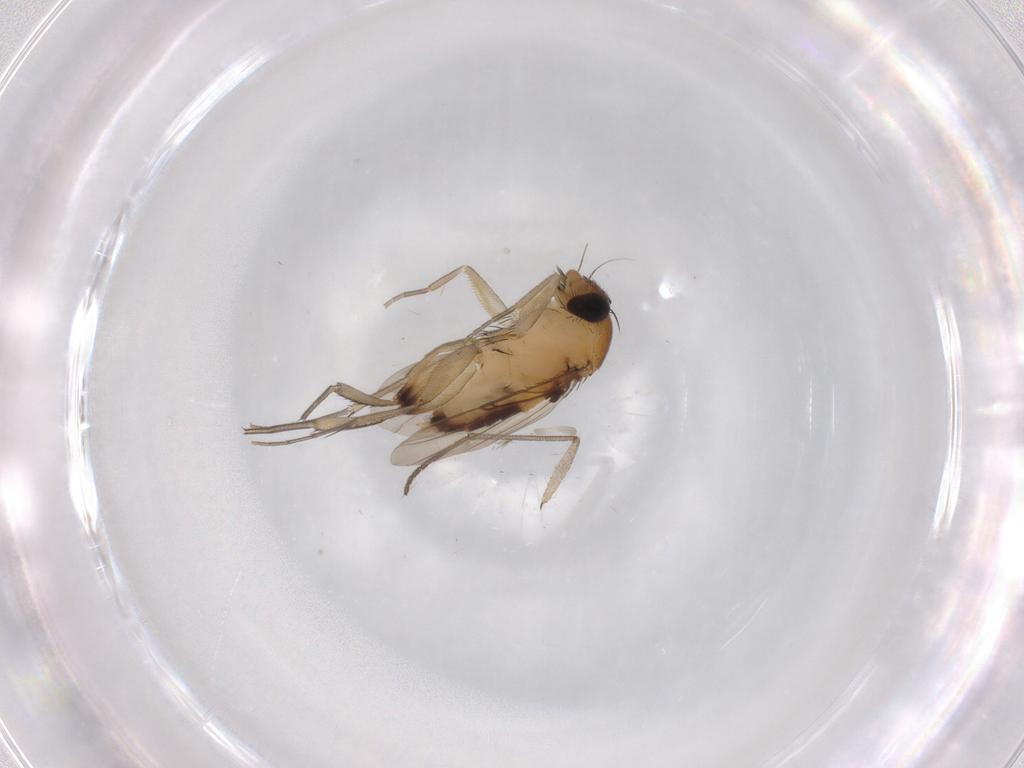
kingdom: Animalia
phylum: Arthropoda
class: Insecta
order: Diptera
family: Phoridae
